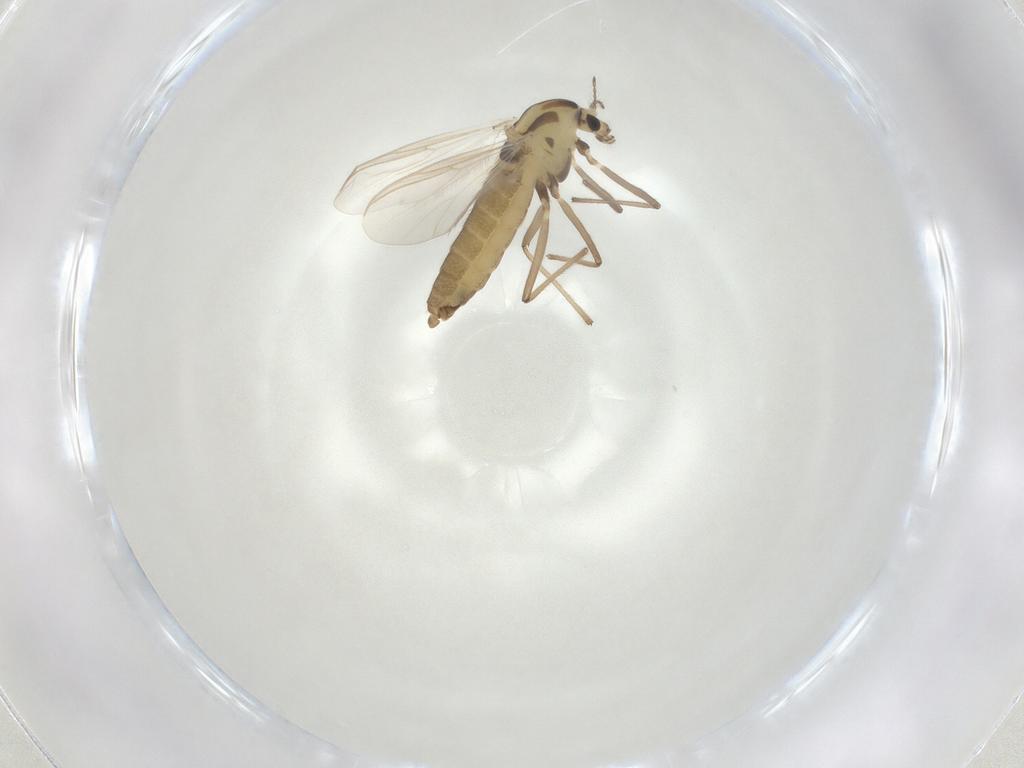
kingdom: Animalia
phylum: Arthropoda
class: Insecta
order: Diptera
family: Chironomidae
